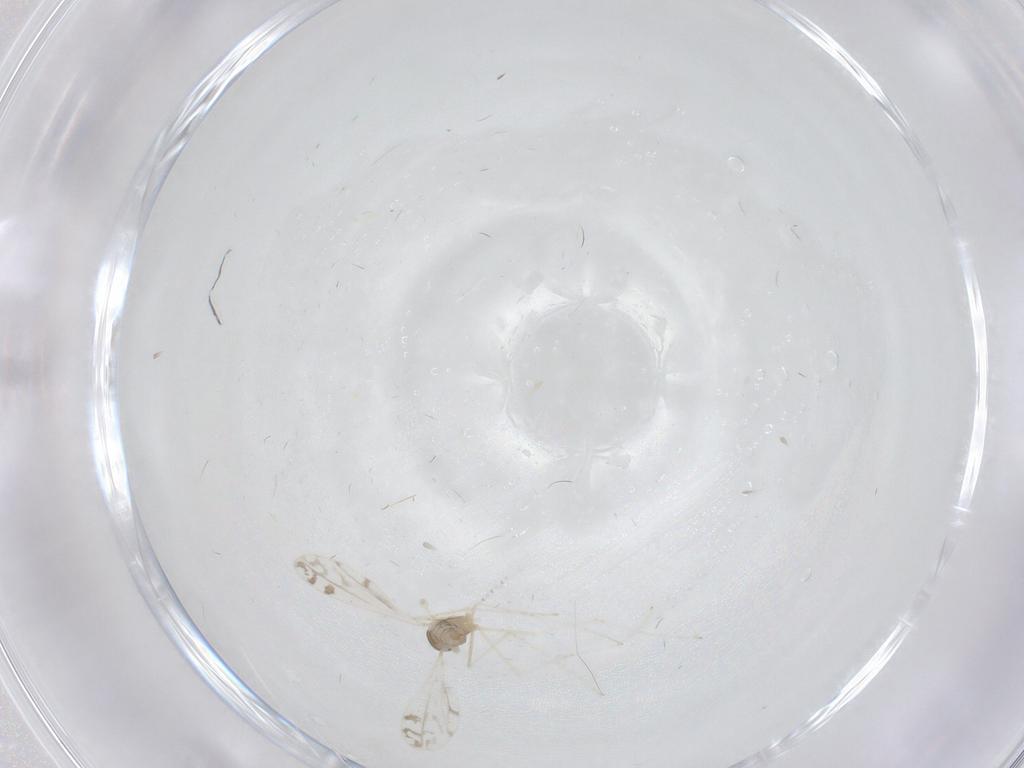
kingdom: Animalia
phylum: Arthropoda
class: Insecta
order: Diptera
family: Cecidomyiidae
